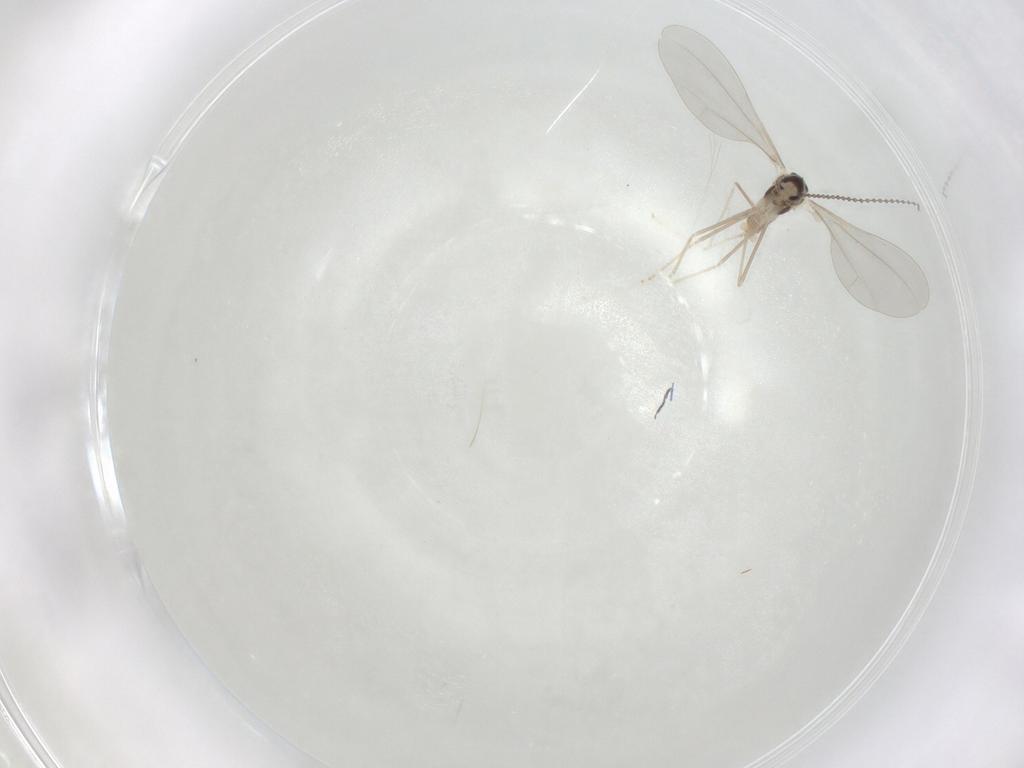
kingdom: Animalia
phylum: Arthropoda
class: Insecta
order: Diptera
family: Cecidomyiidae
